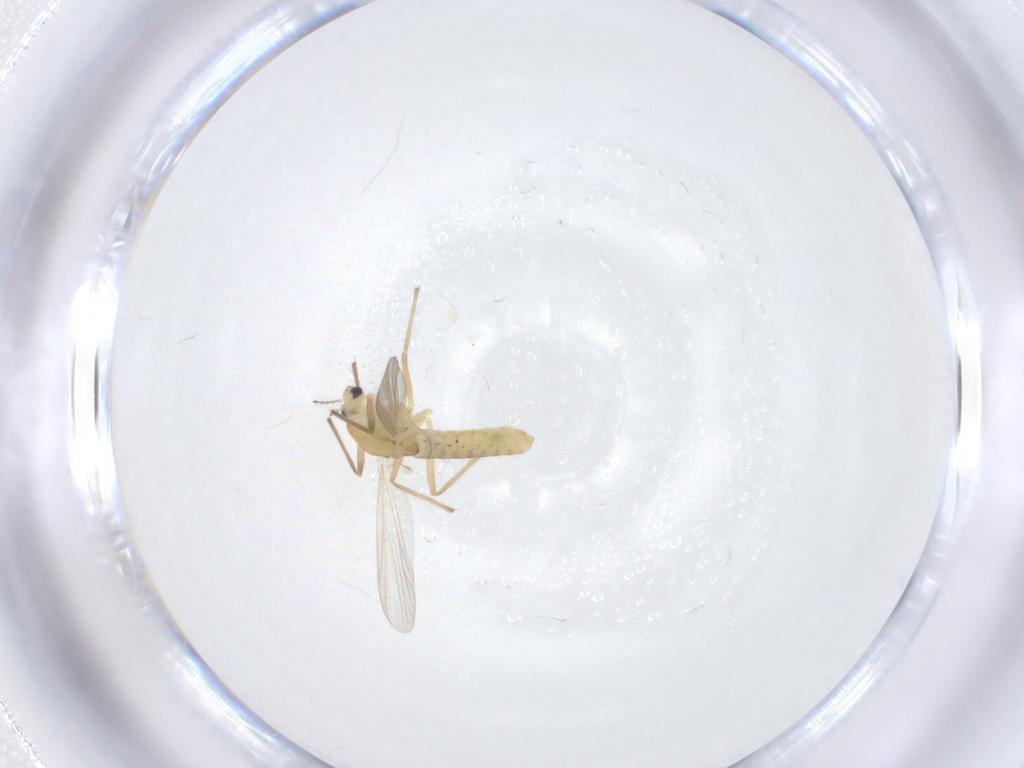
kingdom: Animalia
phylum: Arthropoda
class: Insecta
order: Diptera
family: Chironomidae
